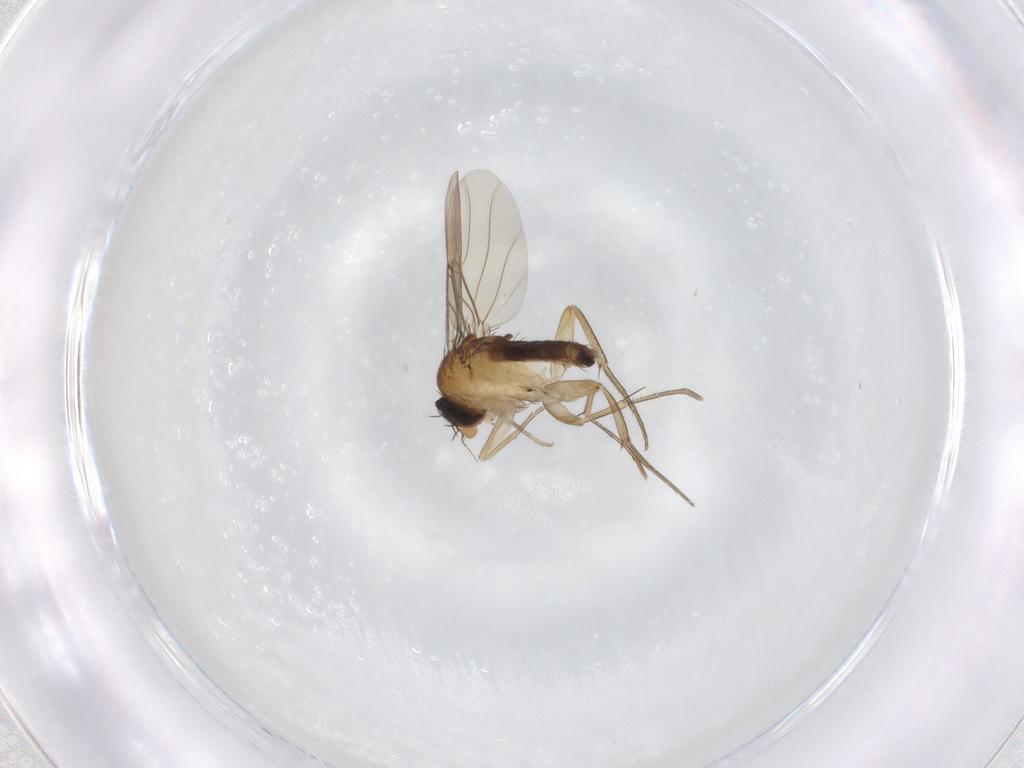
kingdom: Animalia
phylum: Arthropoda
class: Insecta
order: Diptera
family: Phoridae
